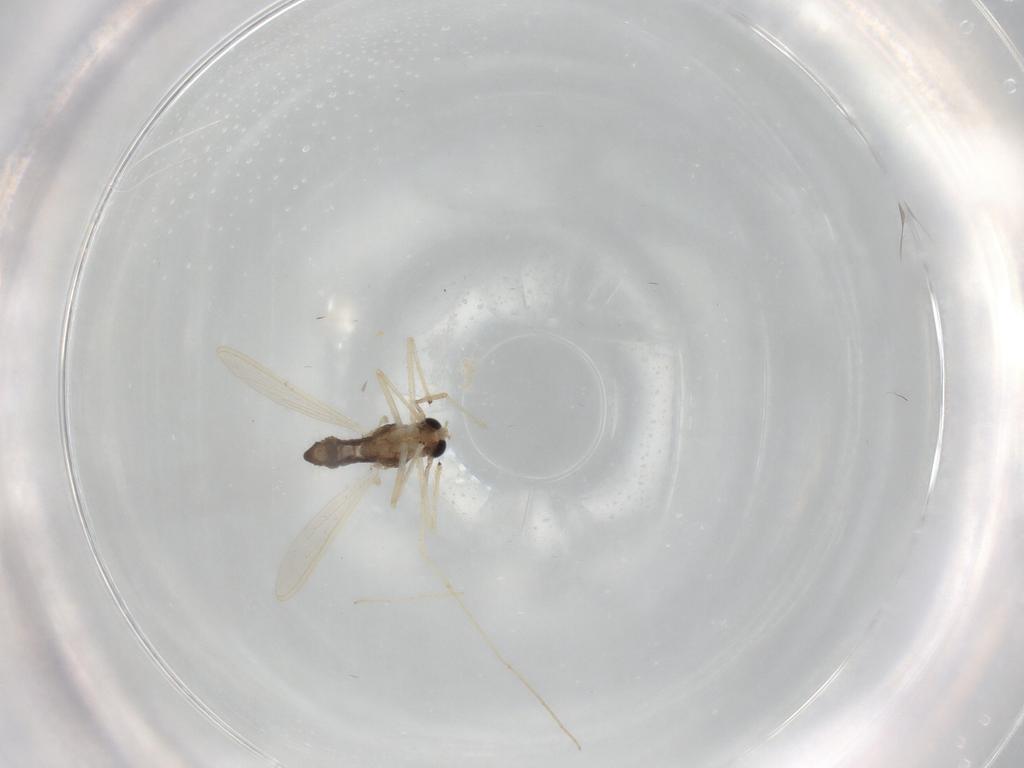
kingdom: Animalia
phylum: Arthropoda
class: Insecta
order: Diptera
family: Chironomidae
